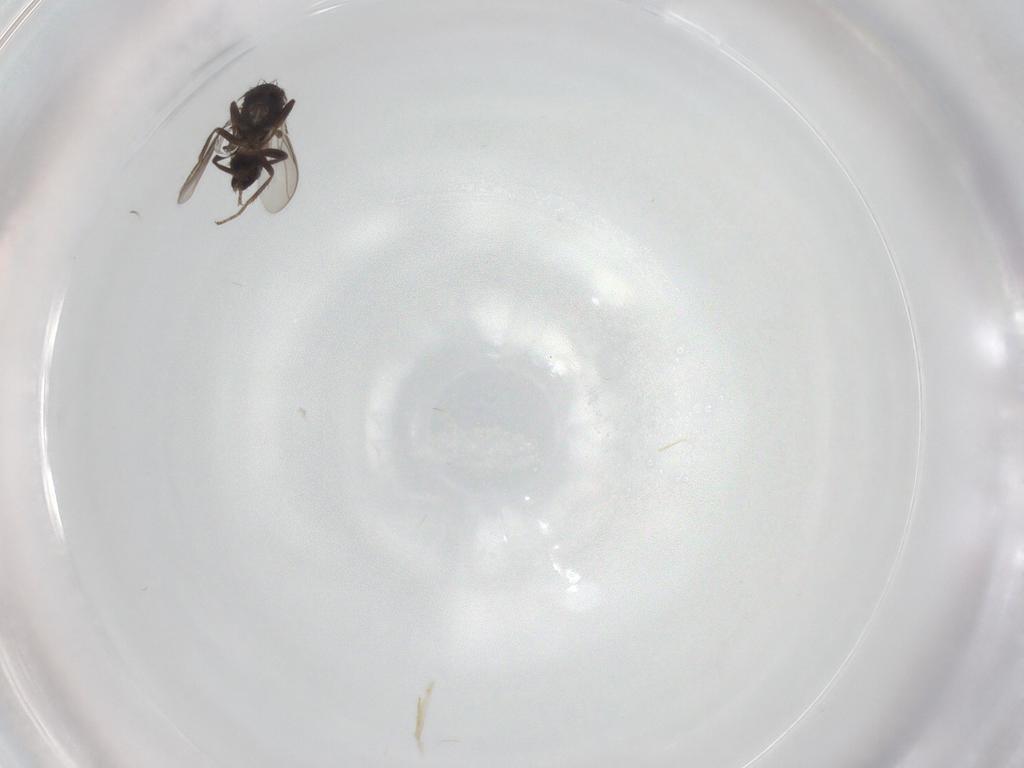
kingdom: Animalia
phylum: Arthropoda
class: Insecta
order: Diptera
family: Sphaeroceridae
